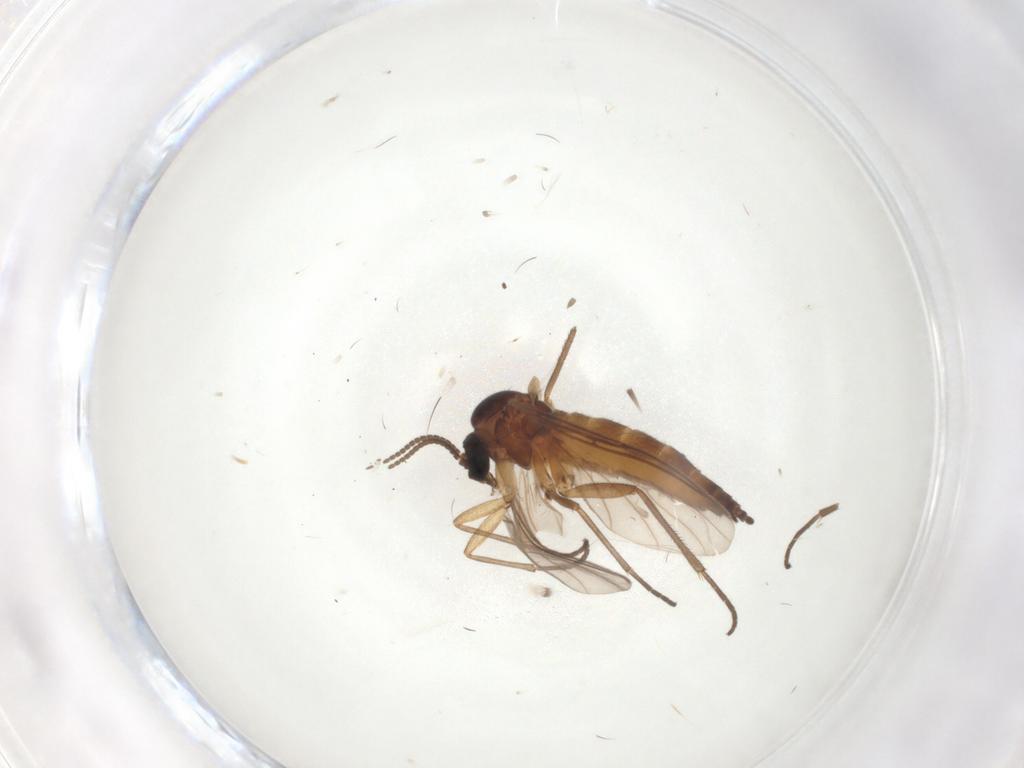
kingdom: Animalia
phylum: Arthropoda
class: Insecta
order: Diptera
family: Sciaridae
